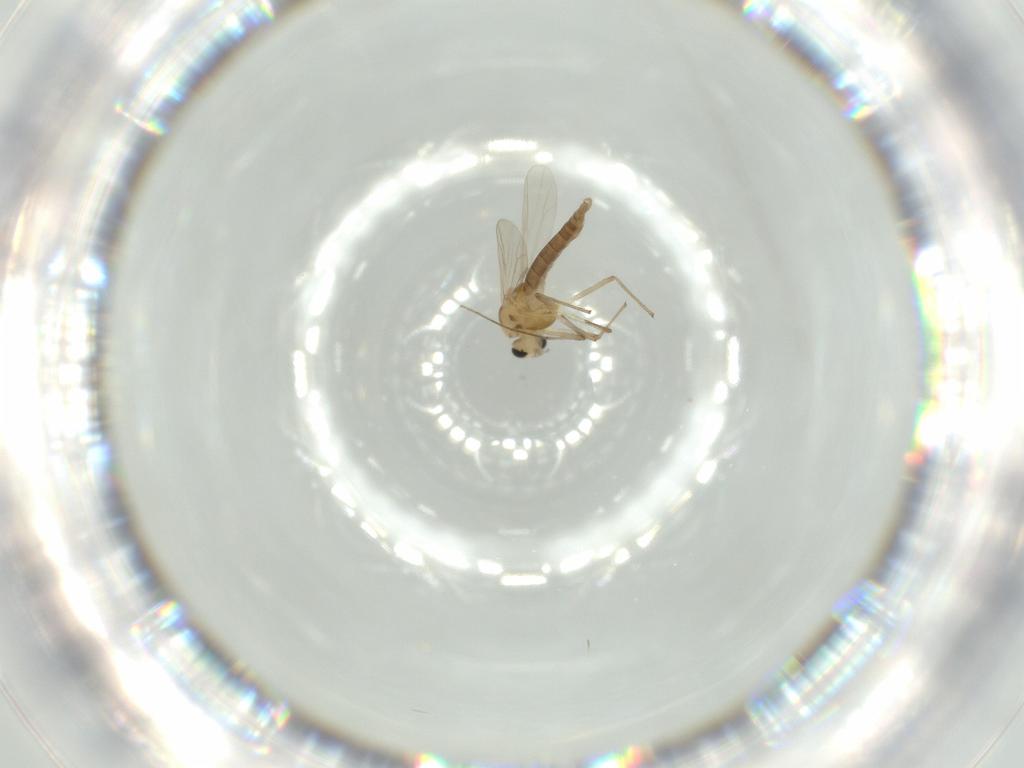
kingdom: Animalia
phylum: Arthropoda
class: Insecta
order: Diptera
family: Chironomidae
